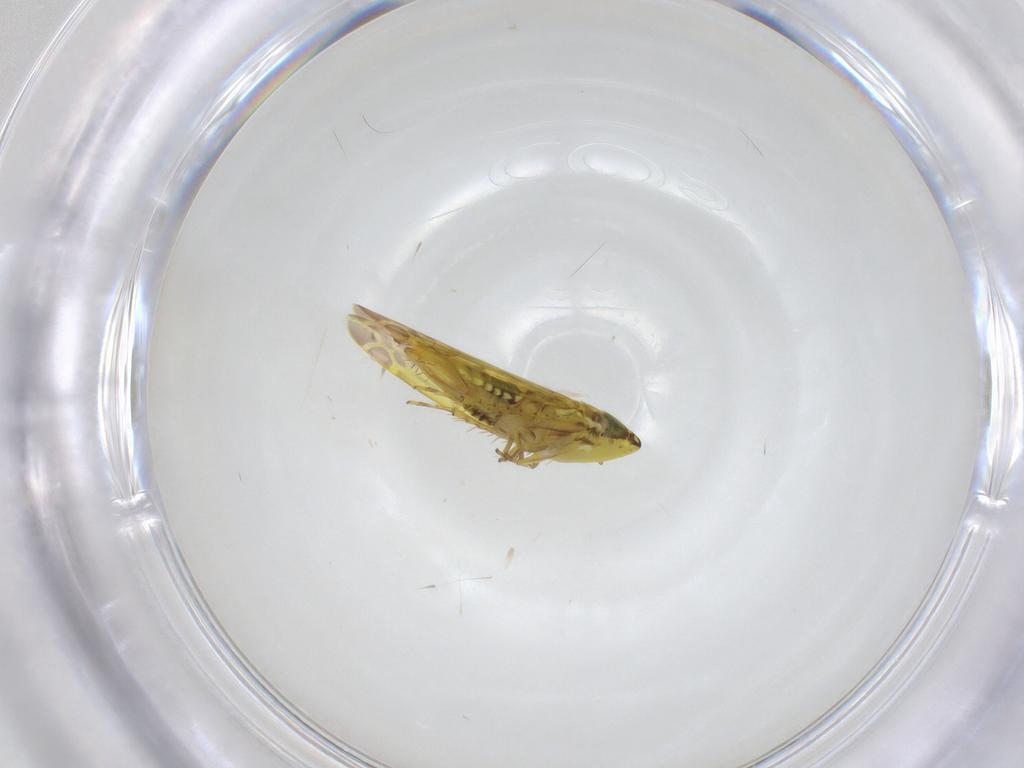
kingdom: Animalia
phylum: Arthropoda
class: Insecta
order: Hemiptera
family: Cicadellidae
